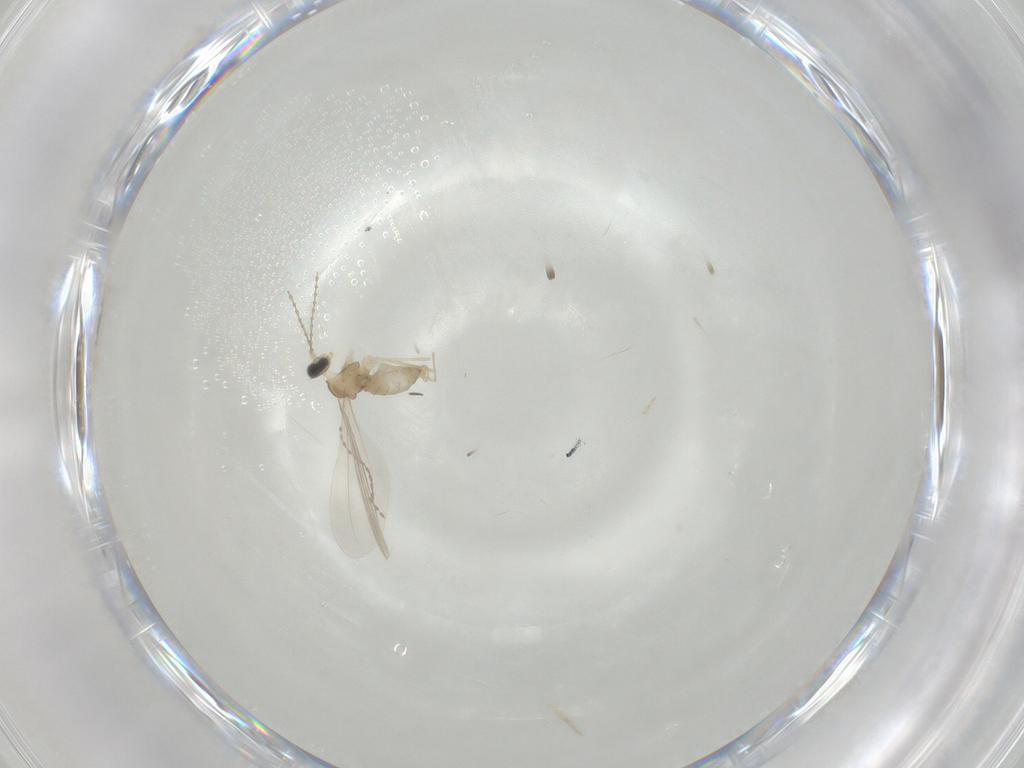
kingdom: Animalia
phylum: Arthropoda
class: Insecta
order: Diptera
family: Cecidomyiidae
